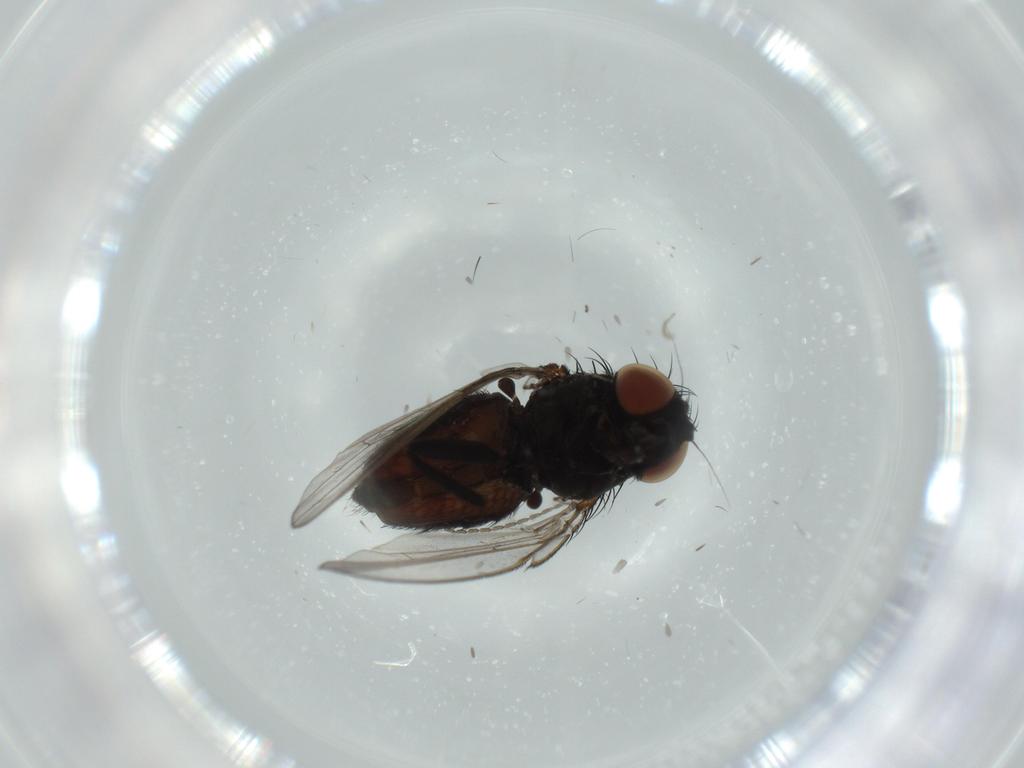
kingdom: Animalia
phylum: Arthropoda
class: Insecta
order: Diptera
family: Milichiidae
